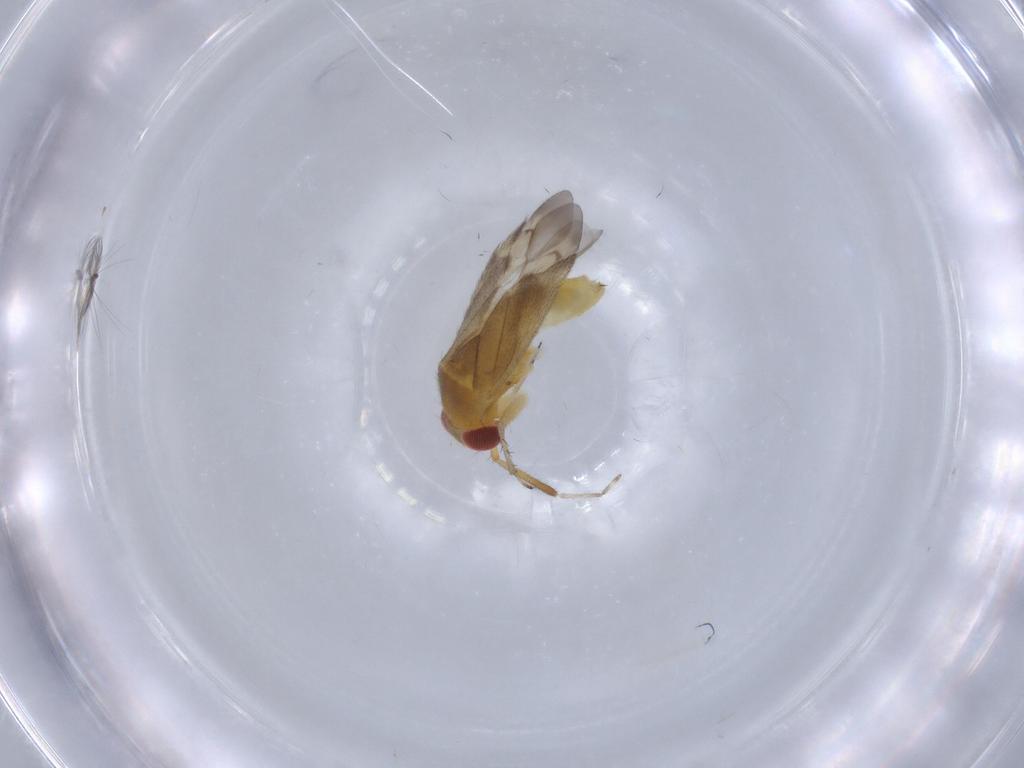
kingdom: Animalia
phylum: Arthropoda
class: Insecta
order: Hemiptera
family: Miridae
